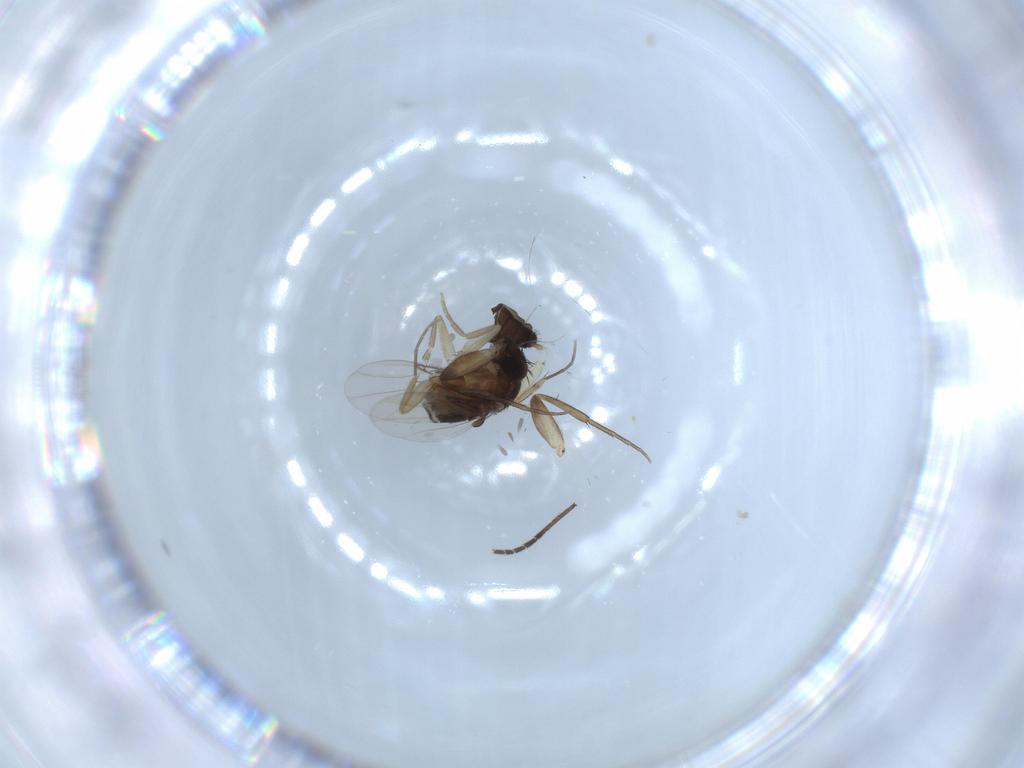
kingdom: Animalia
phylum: Arthropoda
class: Insecta
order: Diptera
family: Phoridae
